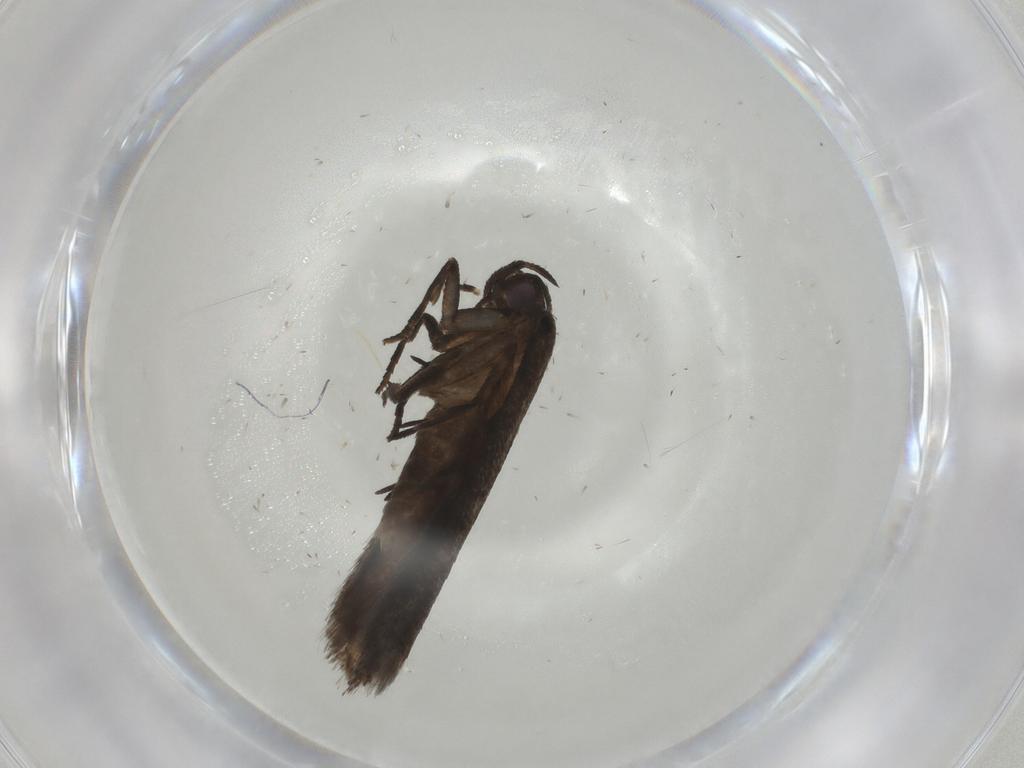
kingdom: Animalia
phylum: Arthropoda
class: Insecta
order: Lepidoptera
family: Gelechiidae
